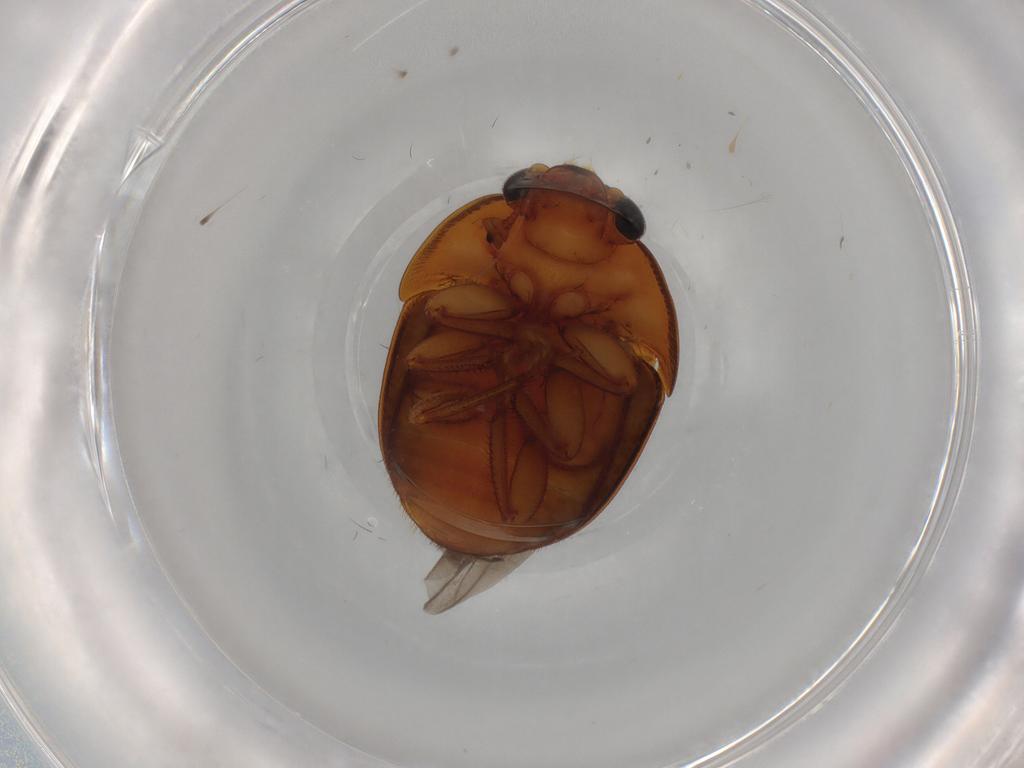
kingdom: Animalia
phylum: Arthropoda
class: Insecta
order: Coleoptera
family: Nitidulidae
